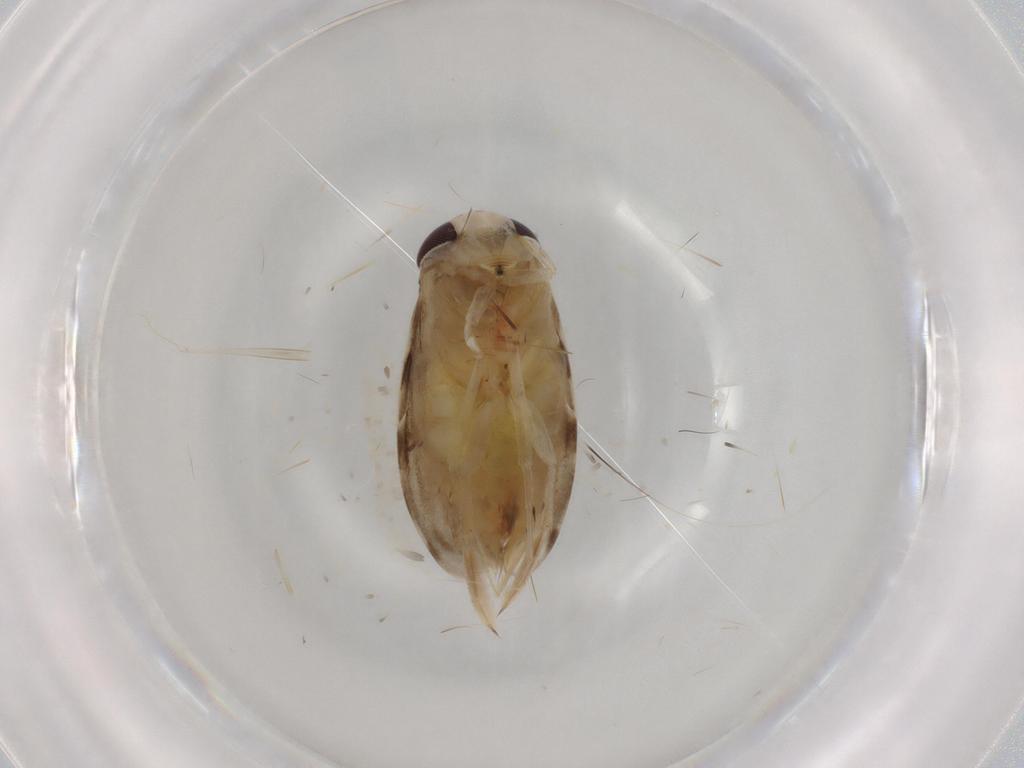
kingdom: Animalia
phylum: Arthropoda
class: Insecta
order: Hemiptera
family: Corixidae
